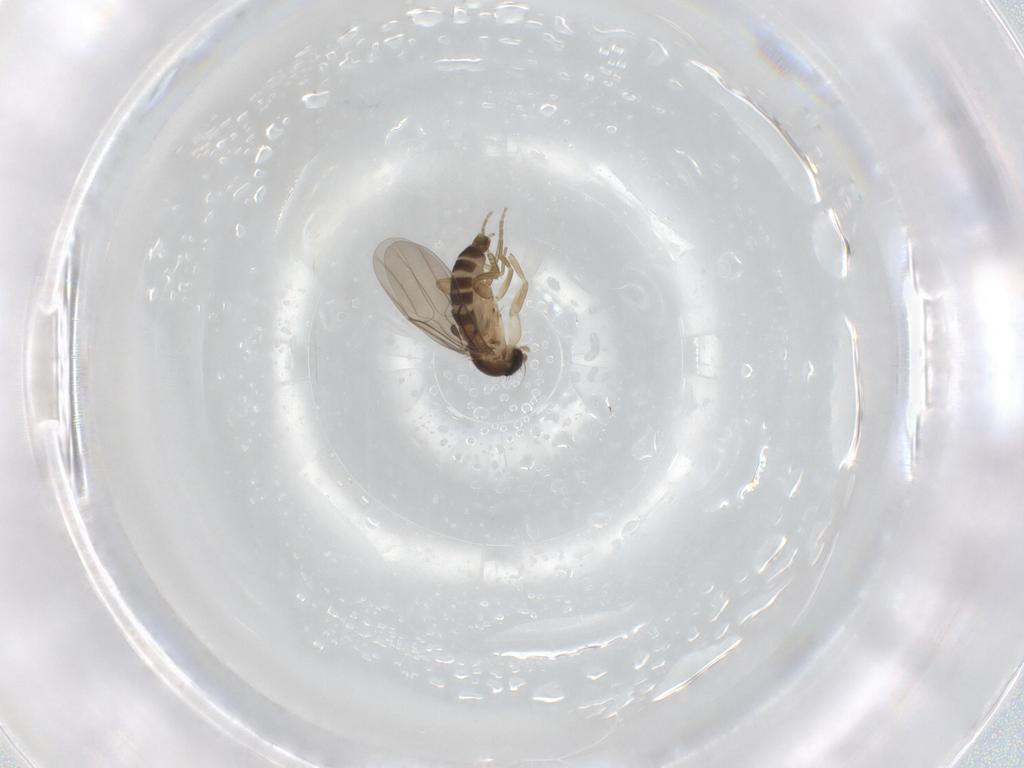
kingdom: Animalia
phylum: Arthropoda
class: Insecta
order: Diptera
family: Phoridae
